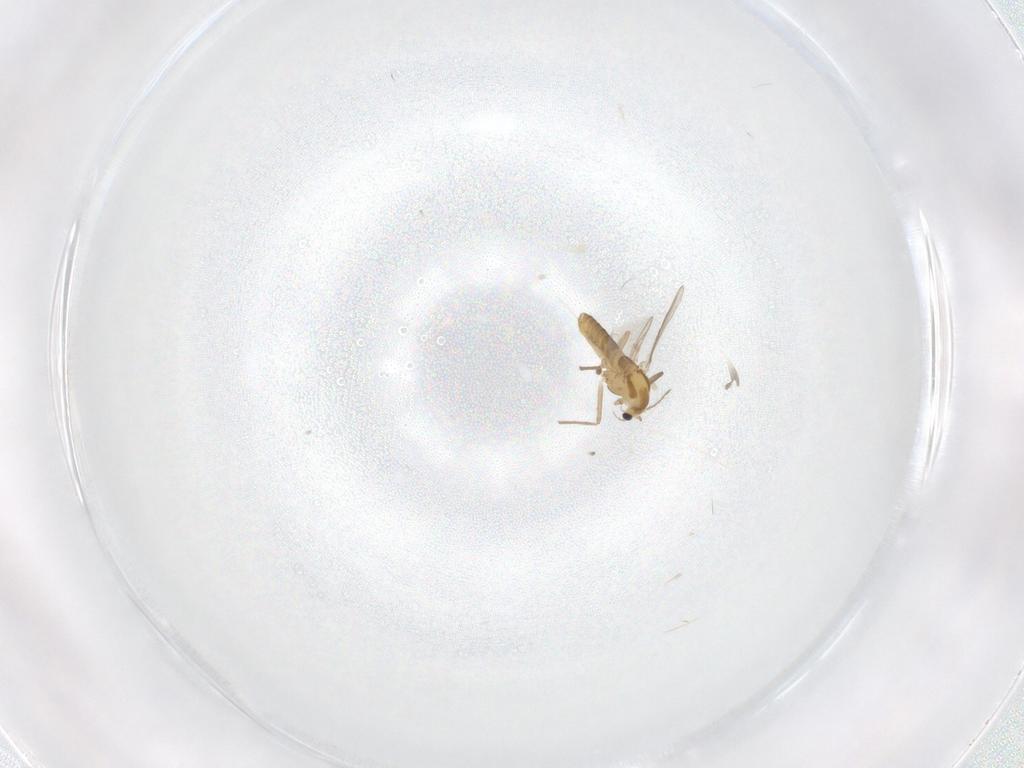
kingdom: Animalia
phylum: Arthropoda
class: Insecta
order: Diptera
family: Chironomidae
